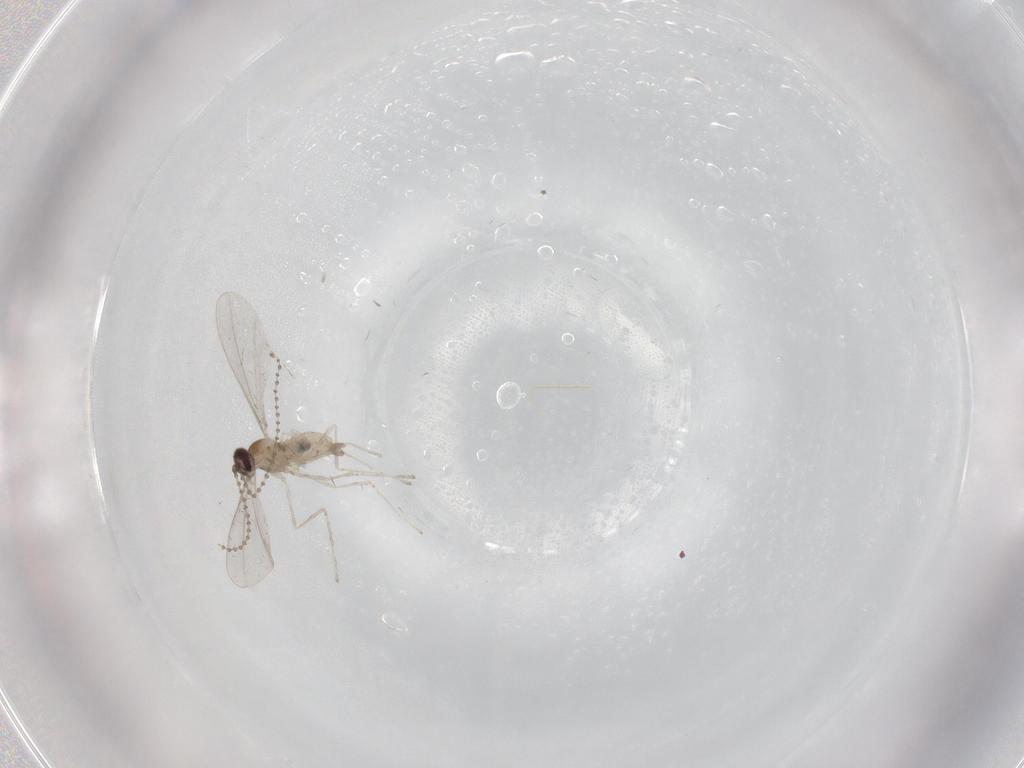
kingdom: Animalia
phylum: Arthropoda
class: Insecta
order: Diptera
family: Cecidomyiidae
